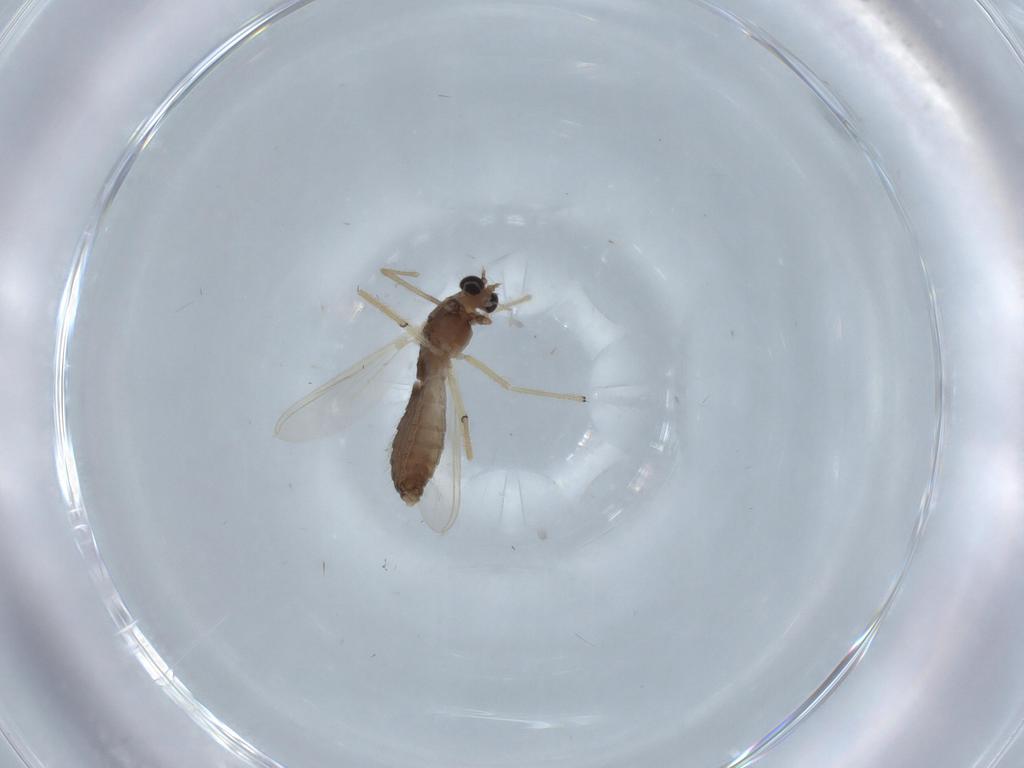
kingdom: Animalia
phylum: Arthropoda
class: Insecta
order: Diptera
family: Chironomidae
